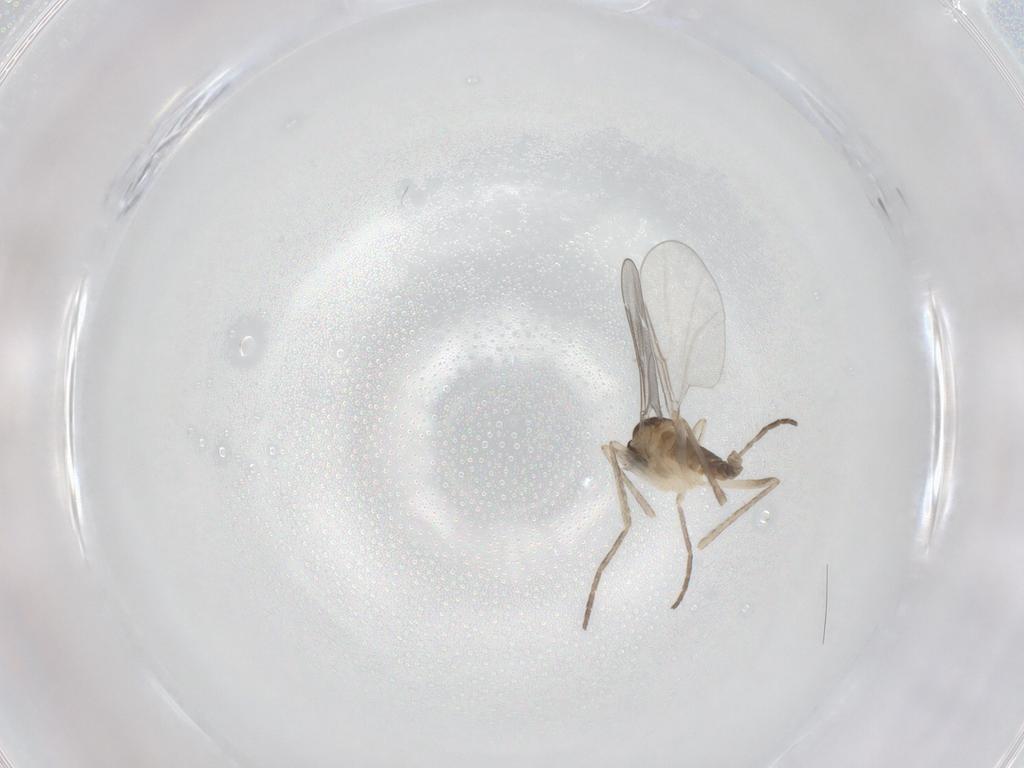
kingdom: Animalia
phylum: Arthropoda
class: Insecta
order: Diptera
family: Cecidomyiidae
